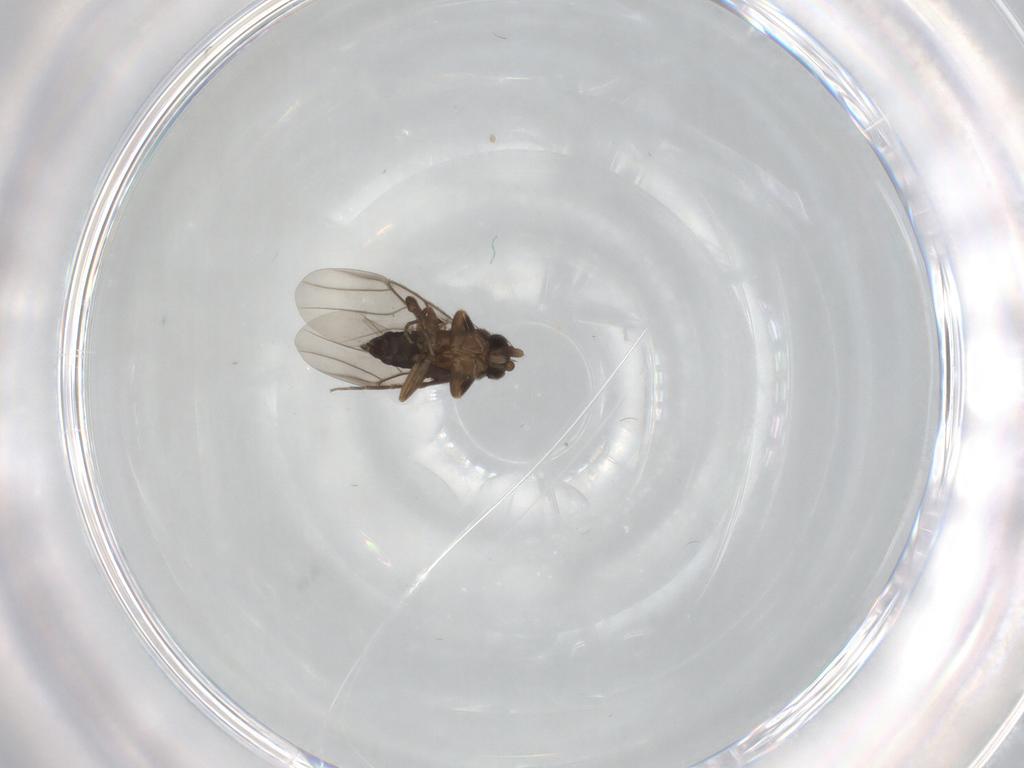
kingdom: Animalia
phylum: Arthropoda
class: Insecta
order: Diptera
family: Phoridae
